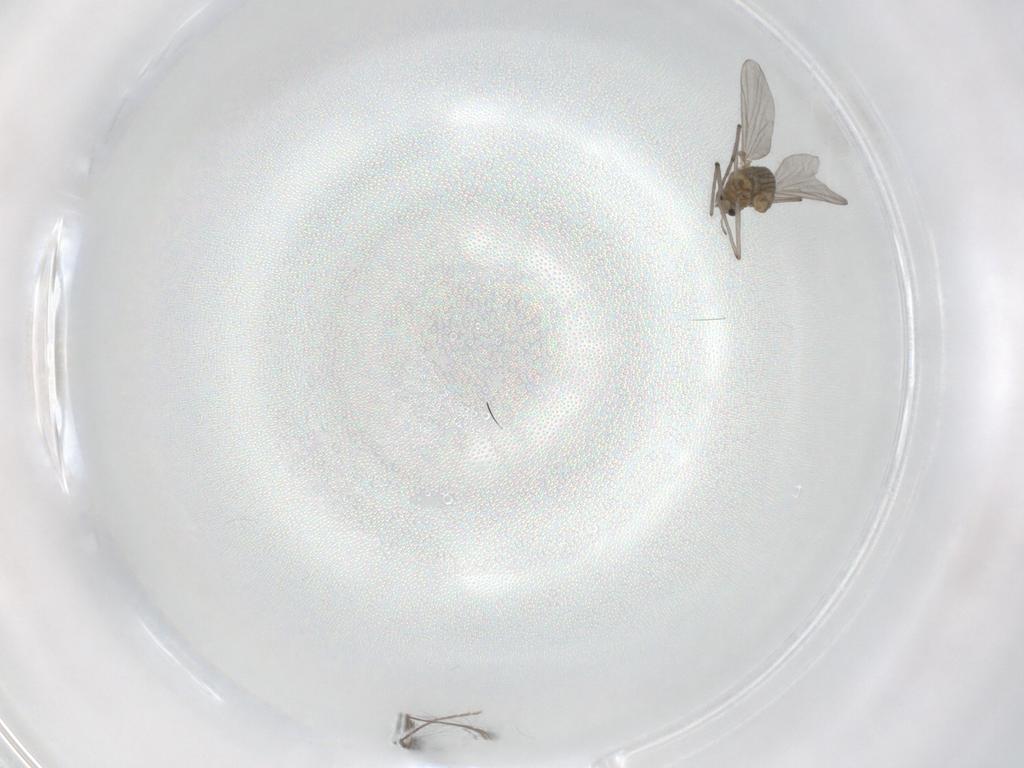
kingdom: Animalia
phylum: Arthropoda
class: Insecta
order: Diptera
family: Chironomidae
